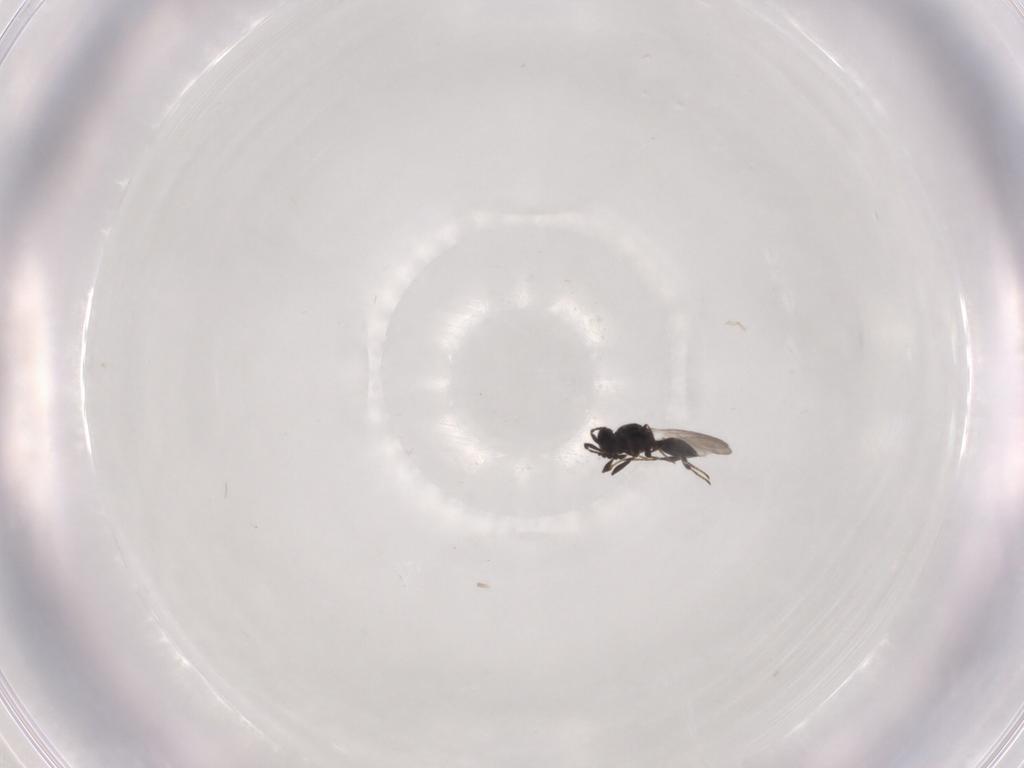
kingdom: Animalia
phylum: Arthropoda
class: Insecta
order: Hymenoptera
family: Platygastridae
